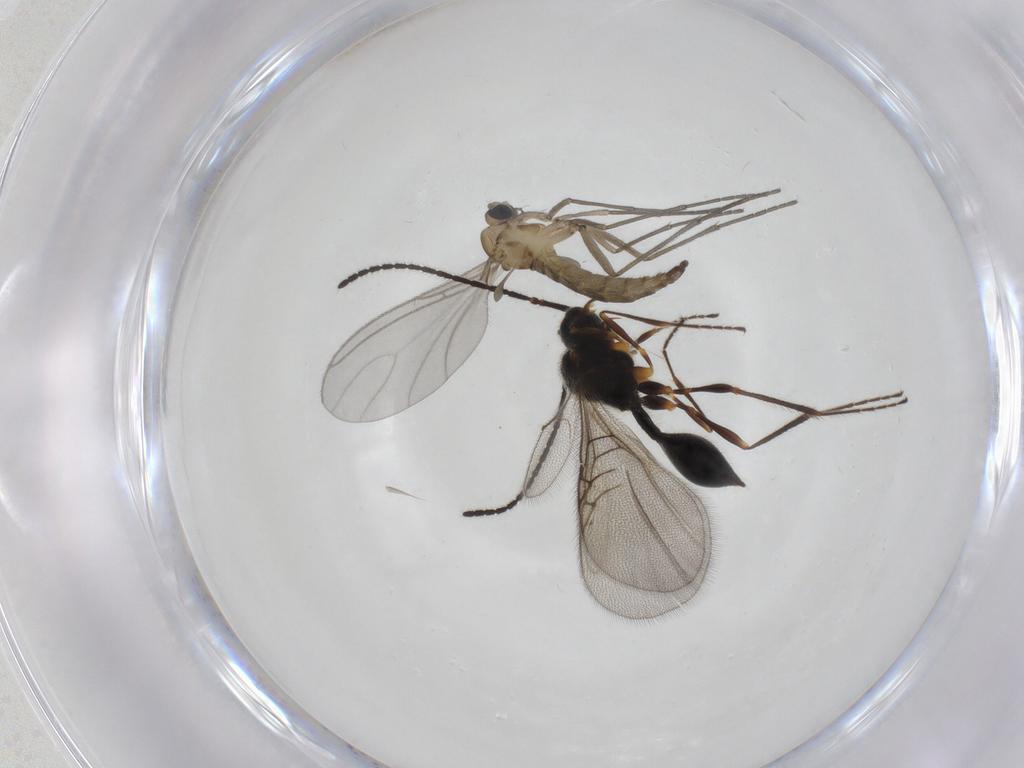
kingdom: Animalia
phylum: Arthropoda
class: Insecta
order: Diptera
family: Sciaridae
